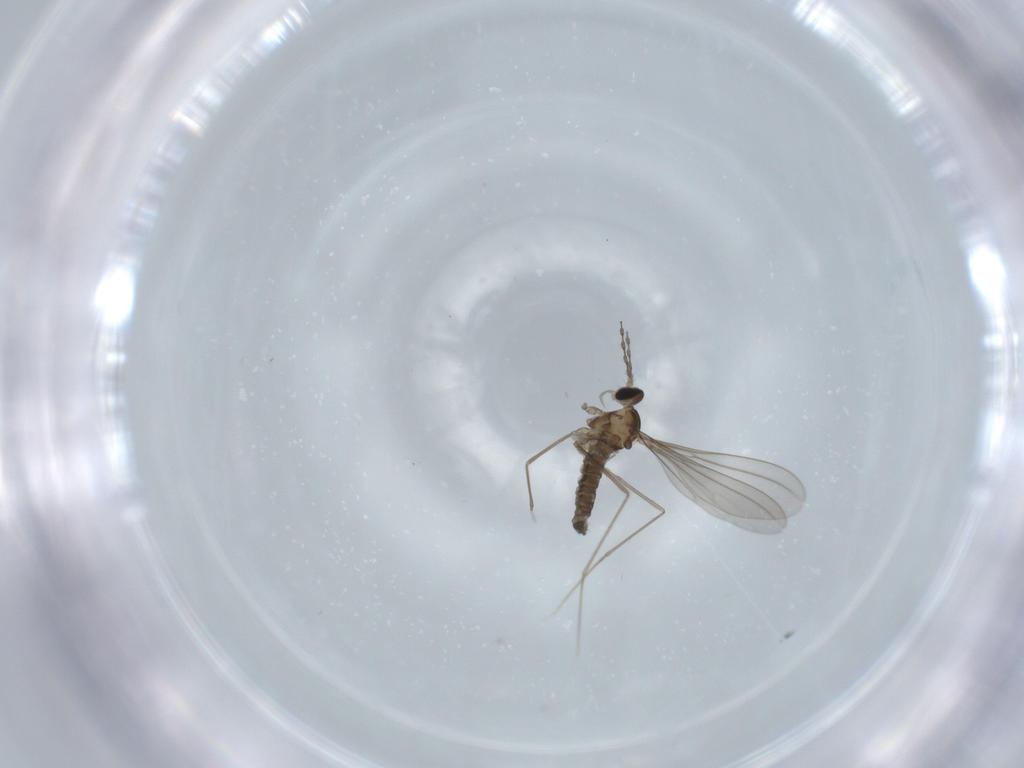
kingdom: Animalia
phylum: Arthropoda
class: Insecta
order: Diptera
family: Cecidomyiidae
